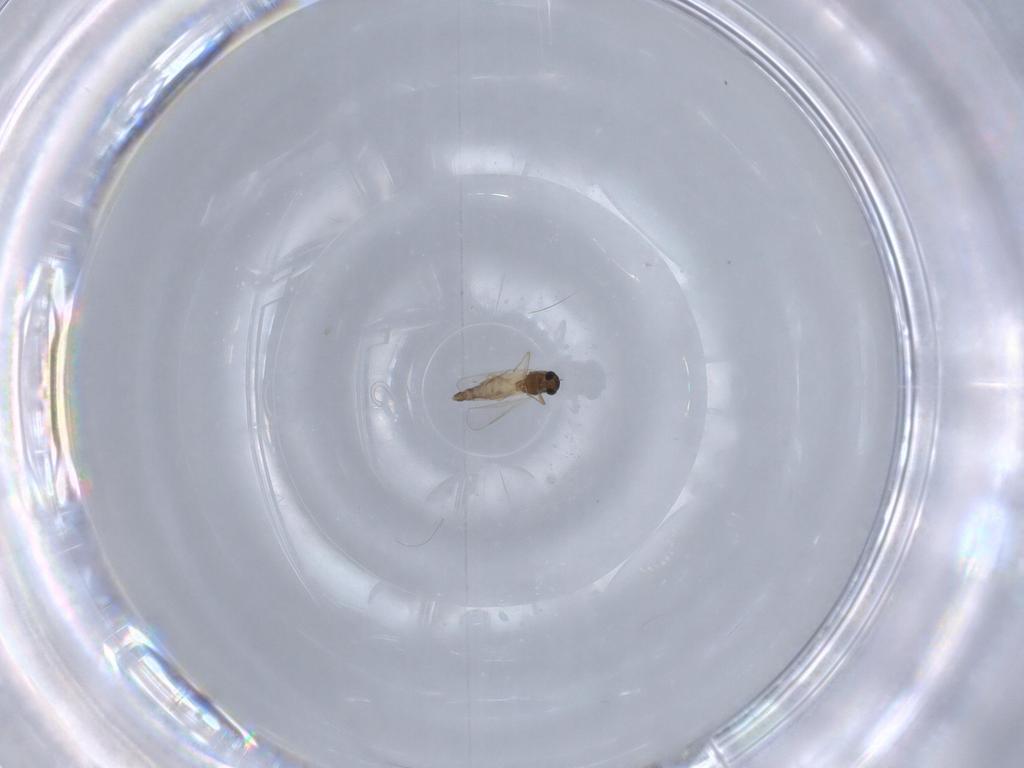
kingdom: Animalia
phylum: Arthropoda
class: Insecta
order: Diptera
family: Chironomidae
